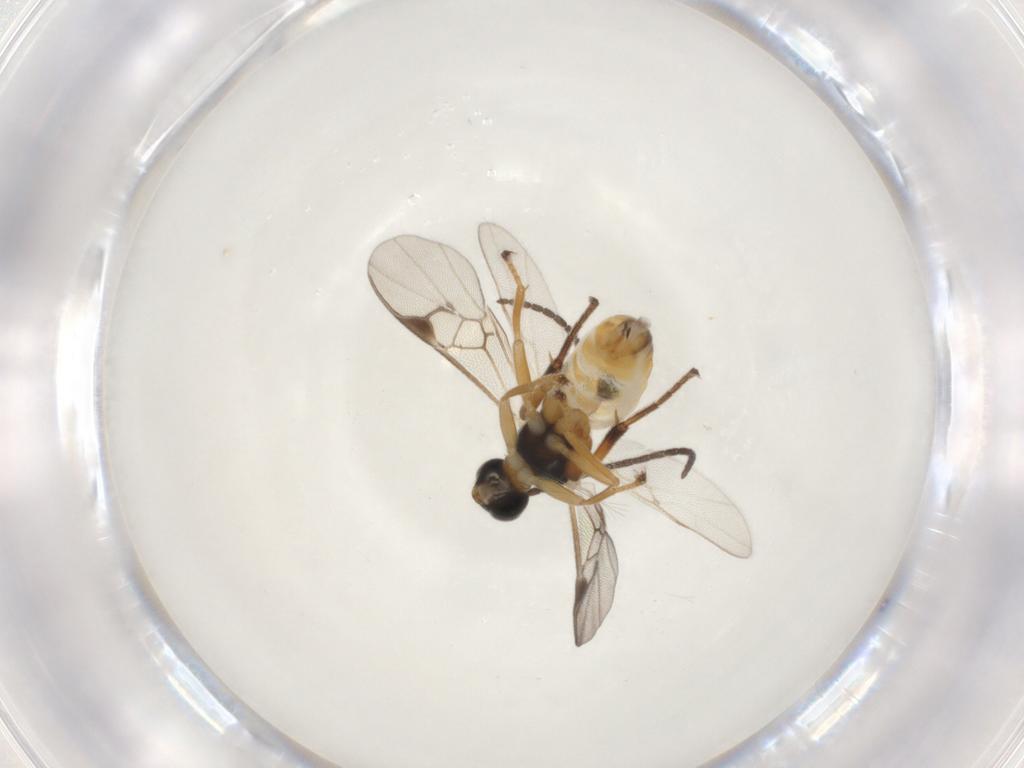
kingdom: Animalia
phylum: Arthropoda
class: Insecta
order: Hymenoptera
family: Braconidae
